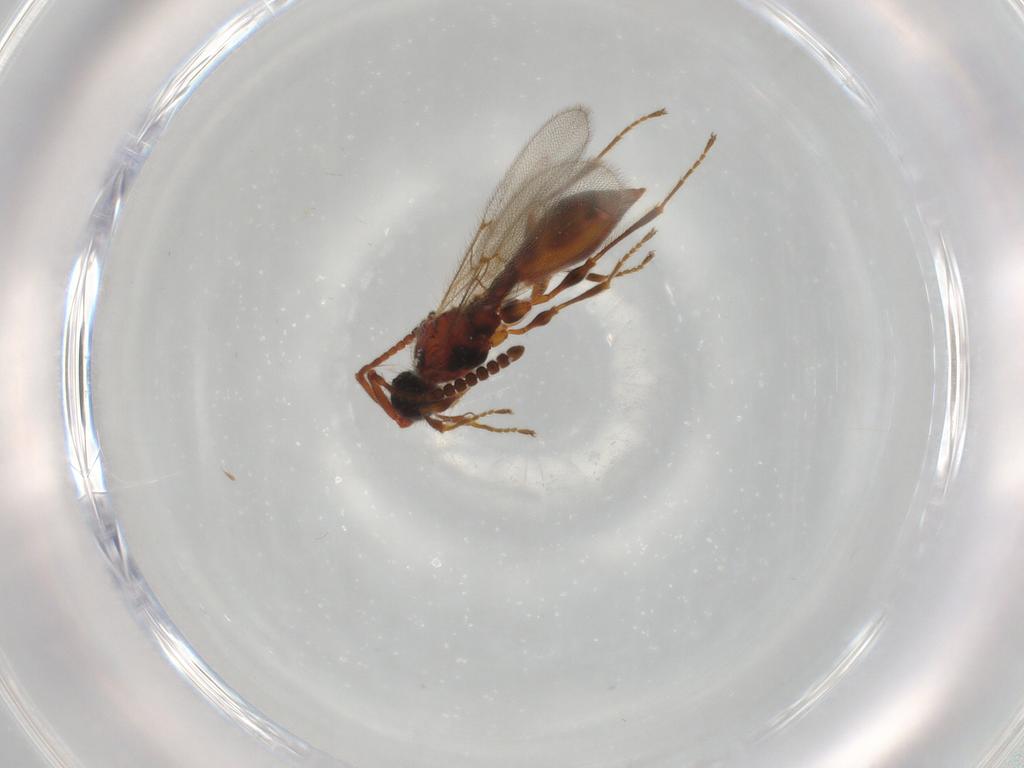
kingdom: Animalia
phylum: Arthropoda
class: Insecta
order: Hymenoptera
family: Diapriidae
